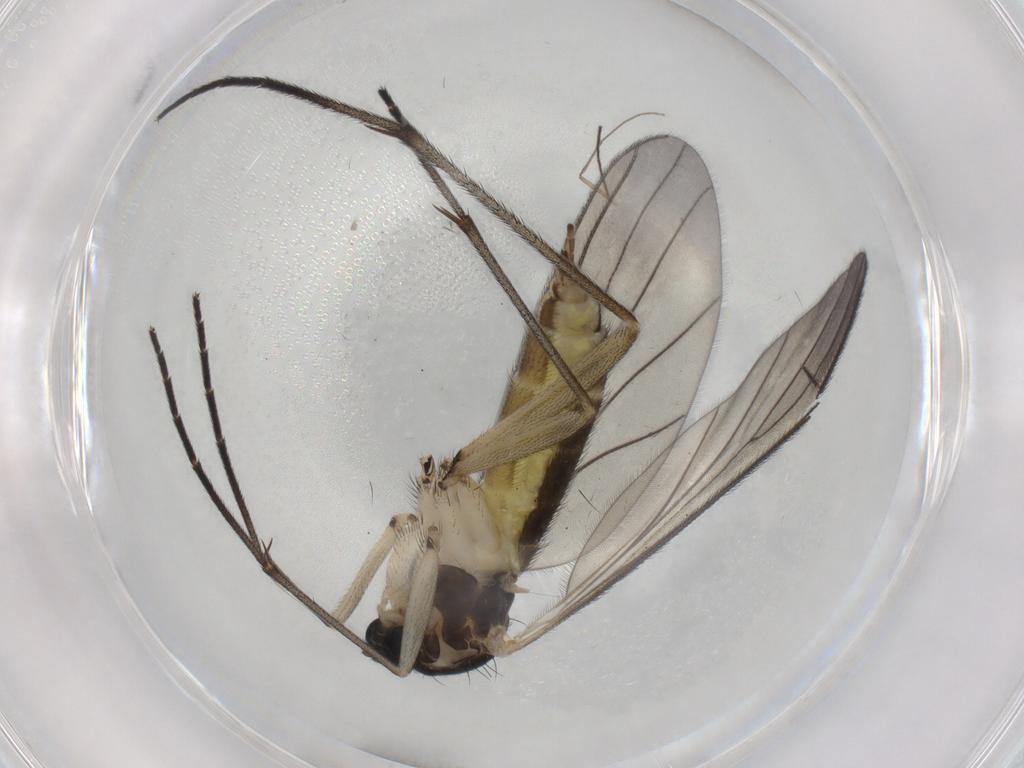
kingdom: Animalia
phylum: Arthropoda
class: Insecta
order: Diptera
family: Sciaridae
